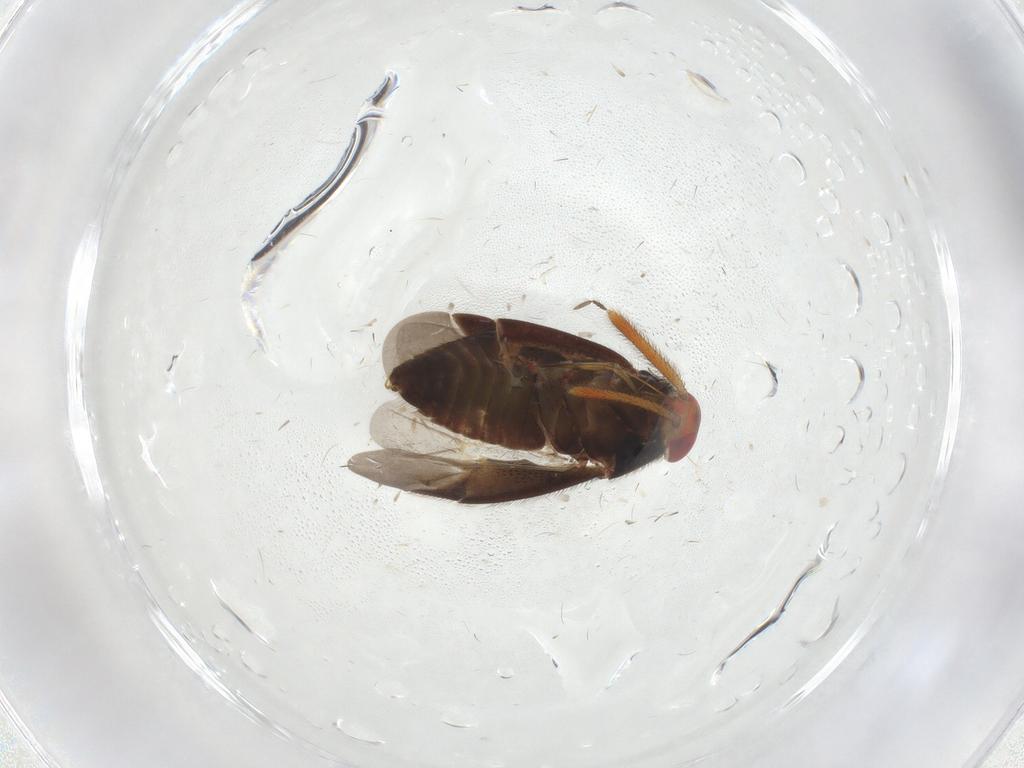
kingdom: Animalia
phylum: Arthropoda
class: Insecta
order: Hemiptera
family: Miridae
